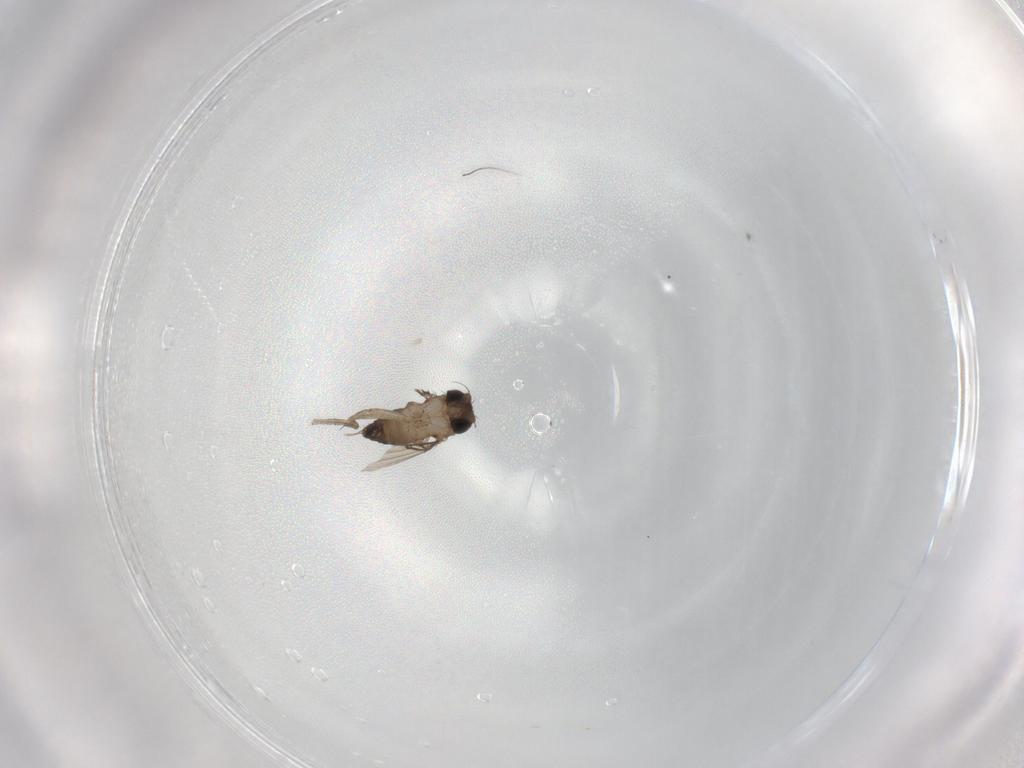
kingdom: Animalia
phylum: Arthropoda
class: Insecta
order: Diptera
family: Phoridae
